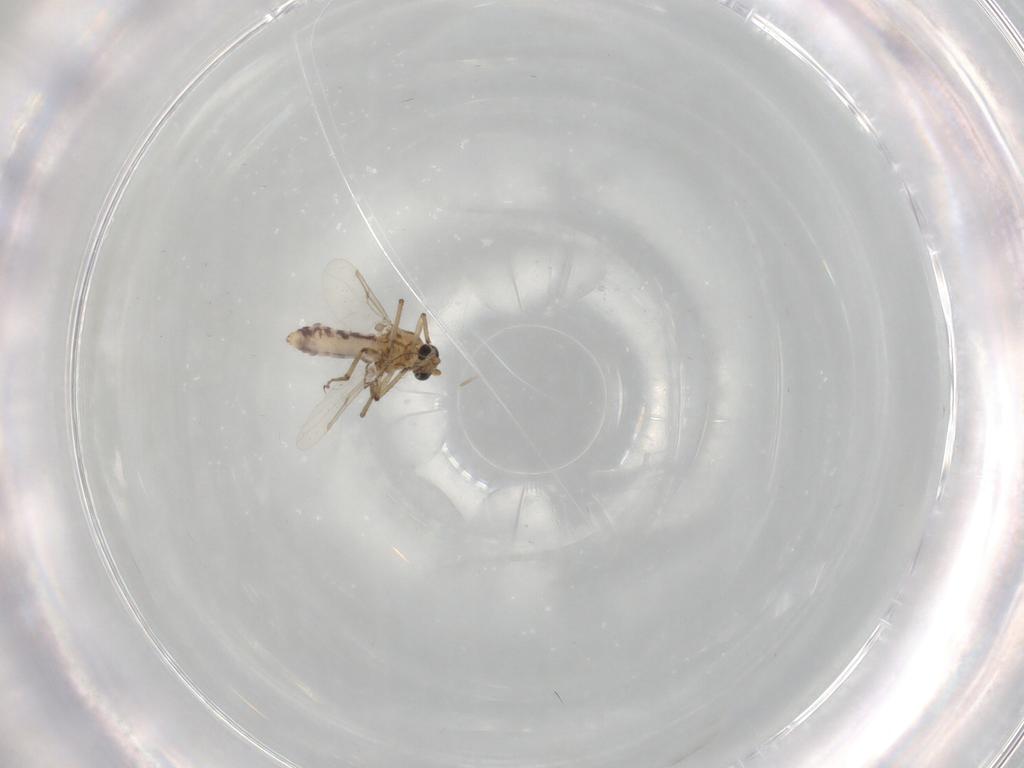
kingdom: Animalia
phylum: Arthropoda
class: Insecta
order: Diptera
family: Ceratopogonidae
